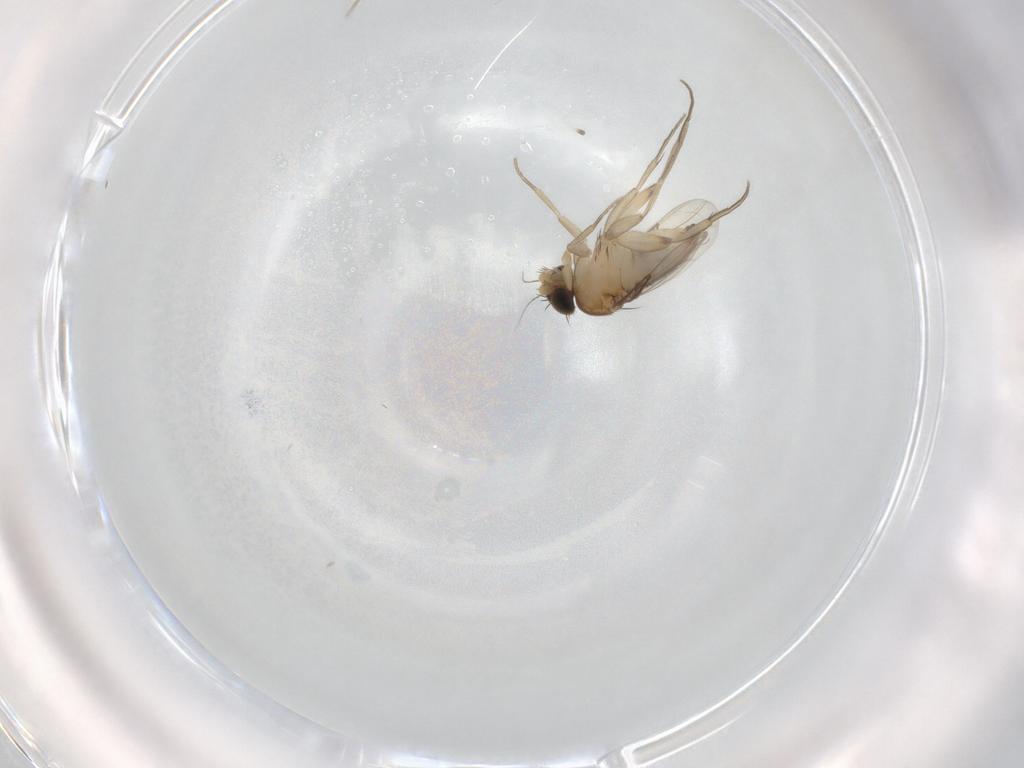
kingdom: Animalia
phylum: Arthropoda
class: Insecta
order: Diptera
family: Phoridae
